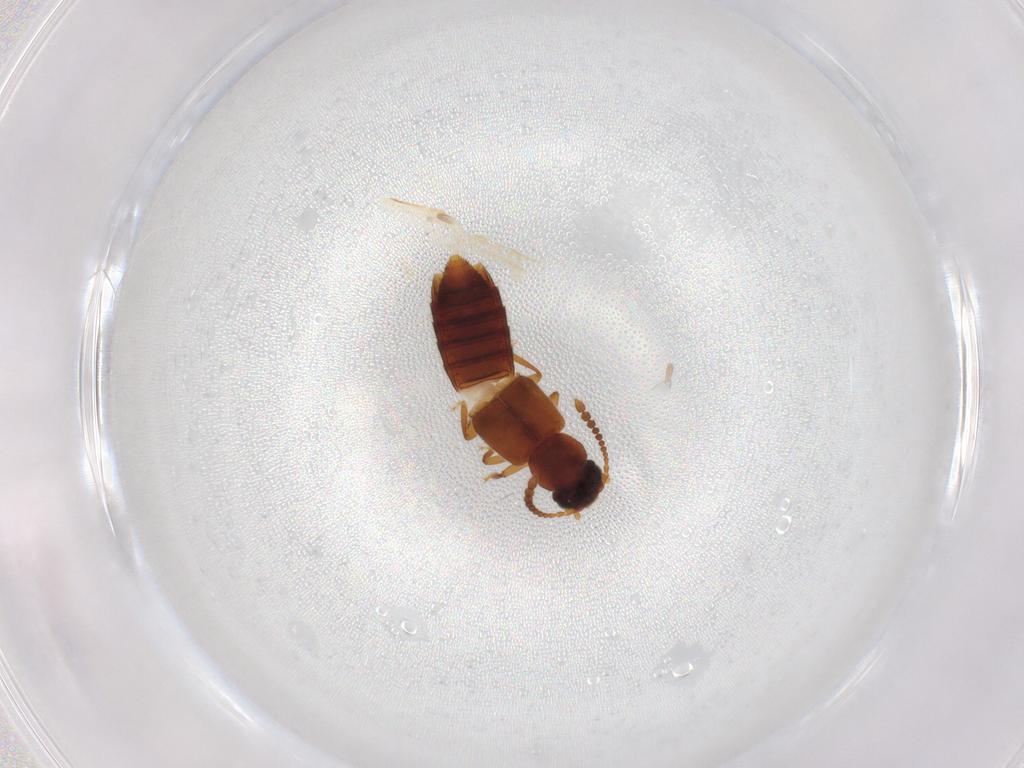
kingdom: Animalia
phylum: Arthropoda
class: Insecta
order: Coleoptera
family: Staphylinidae
